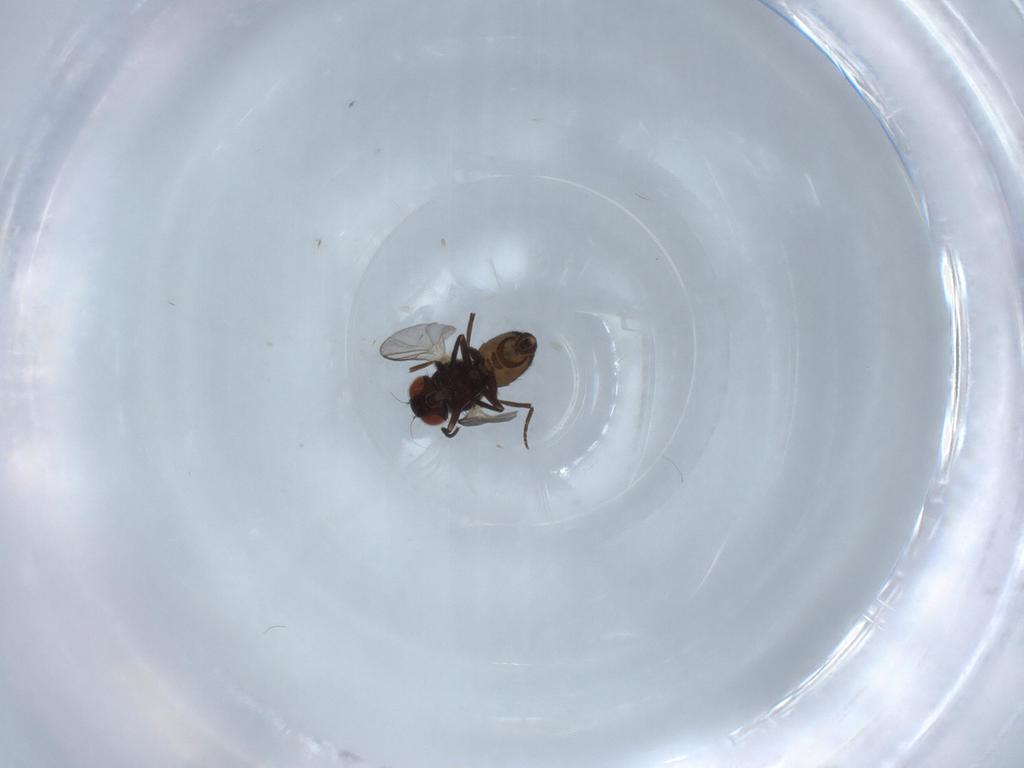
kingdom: Animalia
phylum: Arthropoda
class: Insecta
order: Diptera
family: Agromyzidae
